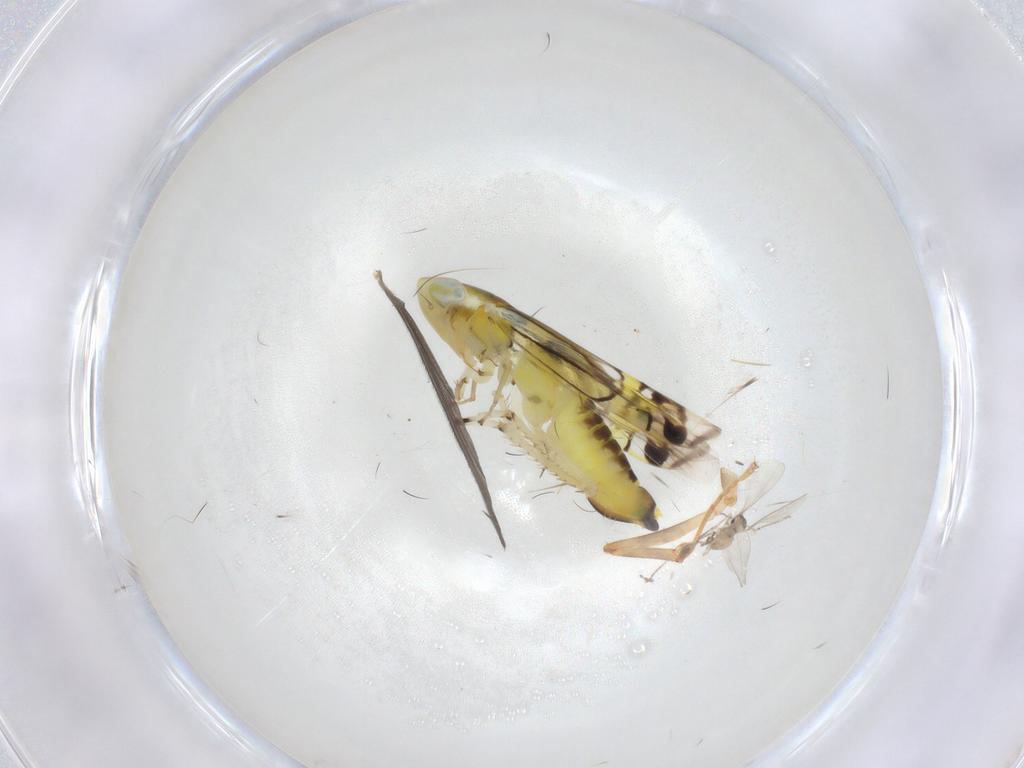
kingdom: Animalia
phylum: Arthropoda
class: Insecta
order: Hemiptera
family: Cicadellidae
